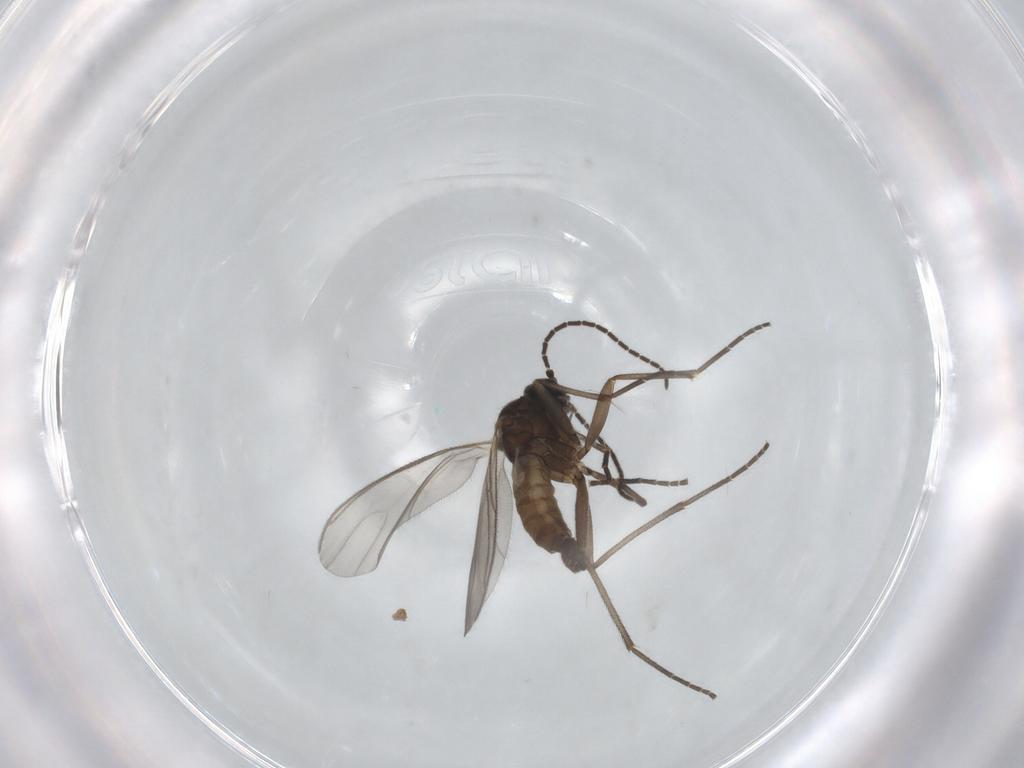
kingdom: Animalia
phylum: Arthropoda
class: Insecta
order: Diptera
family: Sciaridae
